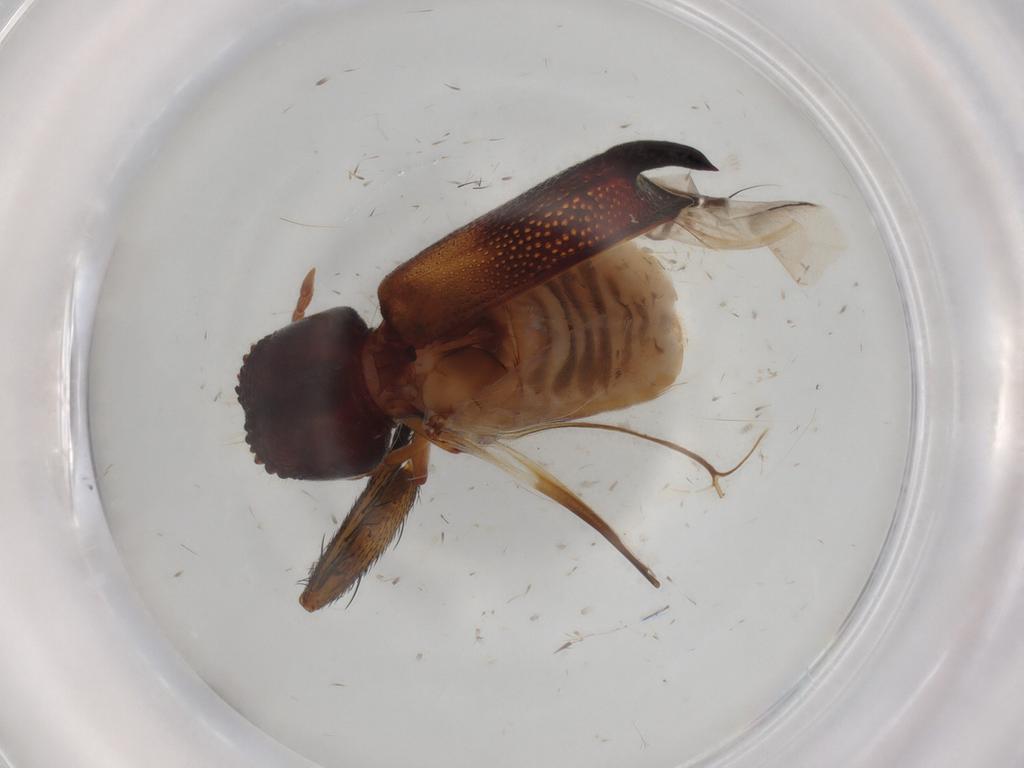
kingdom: Animalia
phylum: Arthropoda
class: Insecta
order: Coleoptera
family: Bostrichidae
